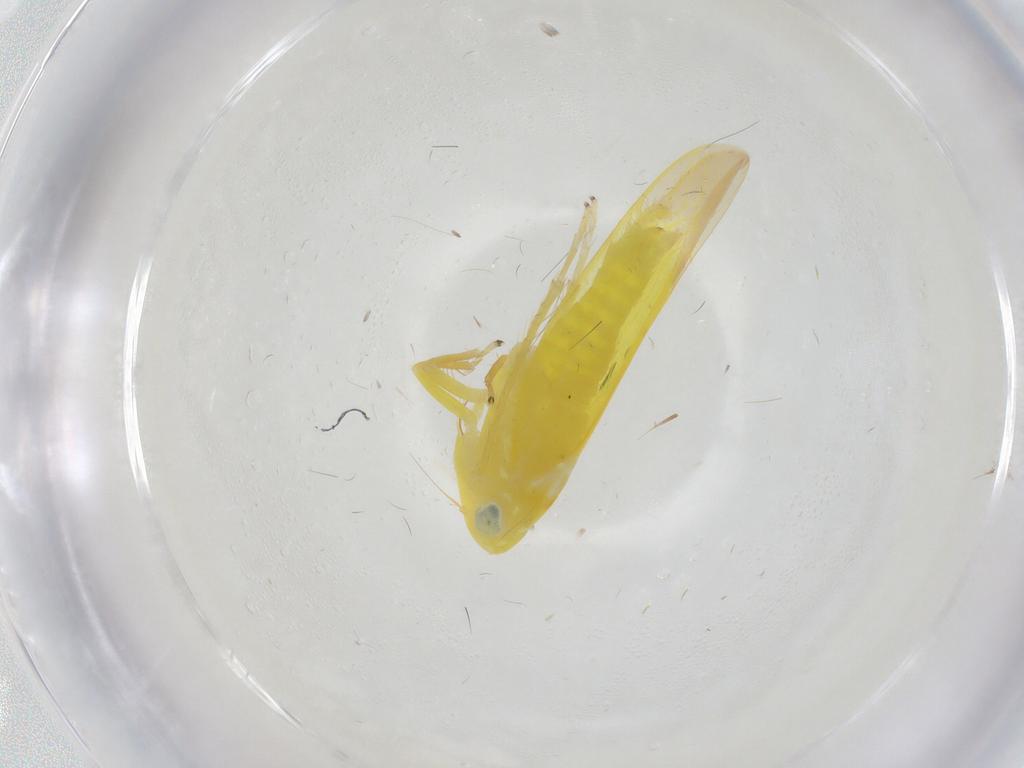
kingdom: Animalia
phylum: Arthropoda
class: Insecta
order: Hemiptera
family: Cicadellidae
